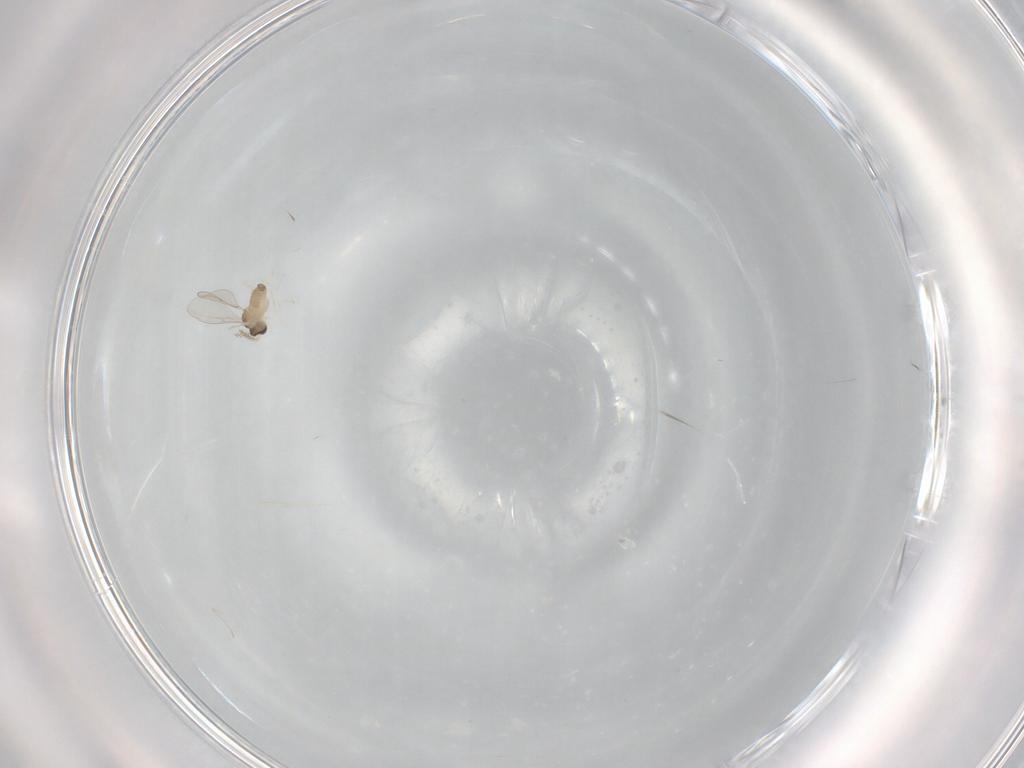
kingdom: Animalia
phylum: Arthropoda
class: Insecta
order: Diptera
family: Cecidomyiidae
